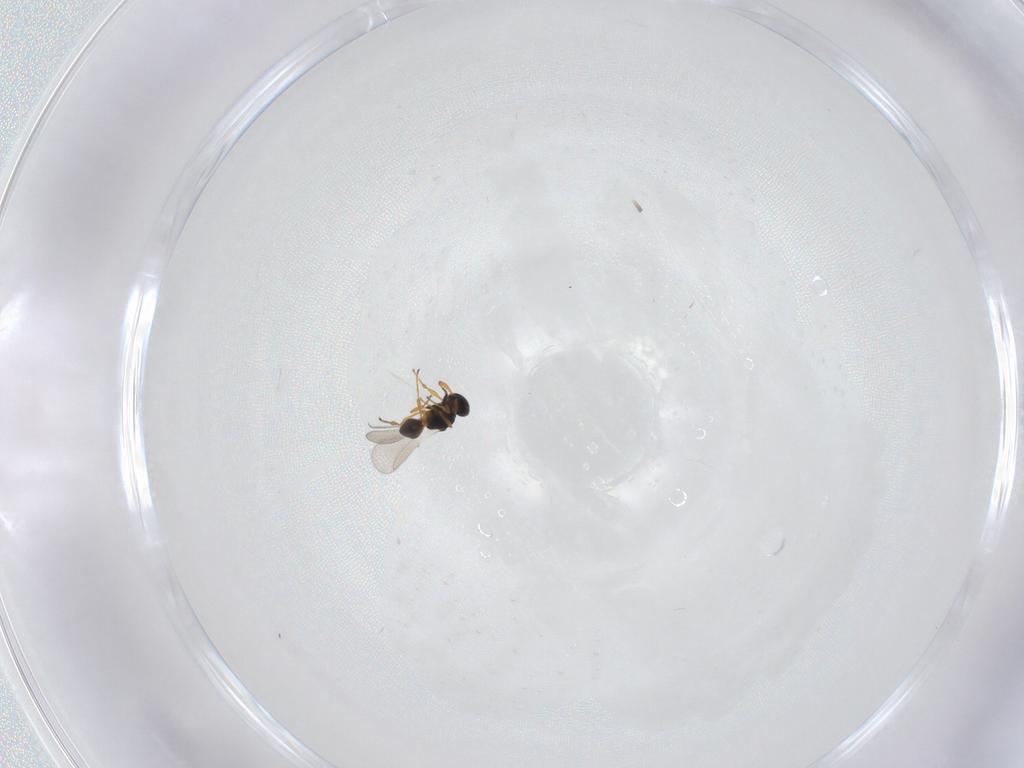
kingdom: Animalia
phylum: Arthropoda
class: Insecta
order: Hymenoptera
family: Platygastridae
